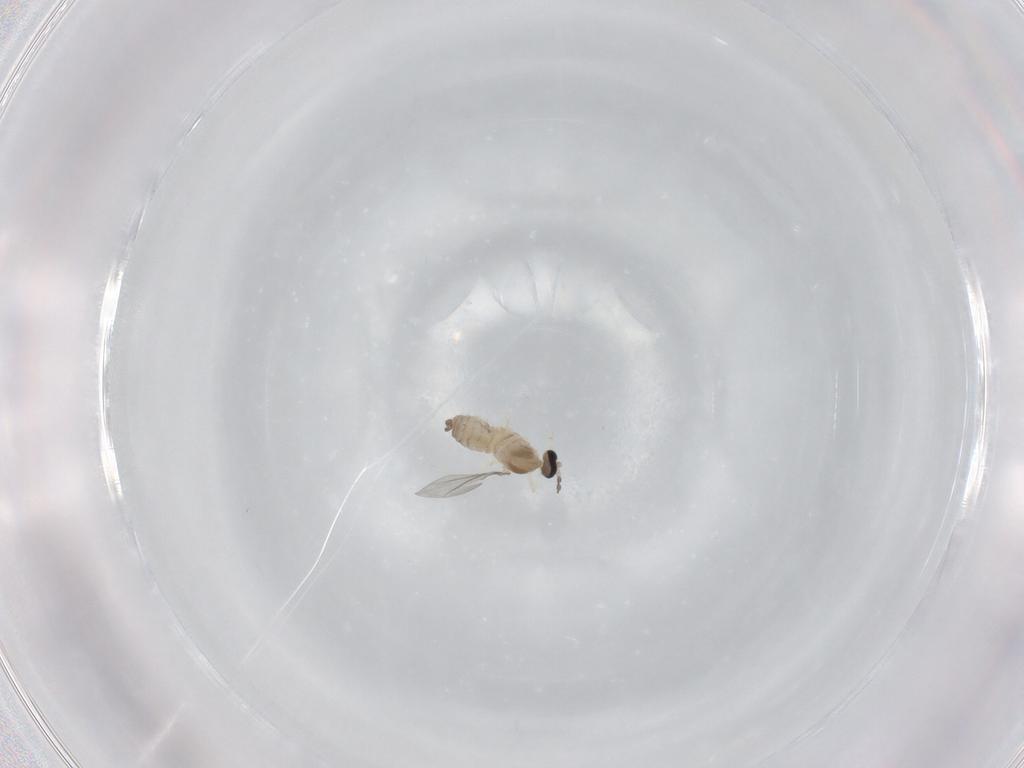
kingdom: Animalia
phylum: Arthropoda
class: Insecta
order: Diptera
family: Cecidomyiidae
